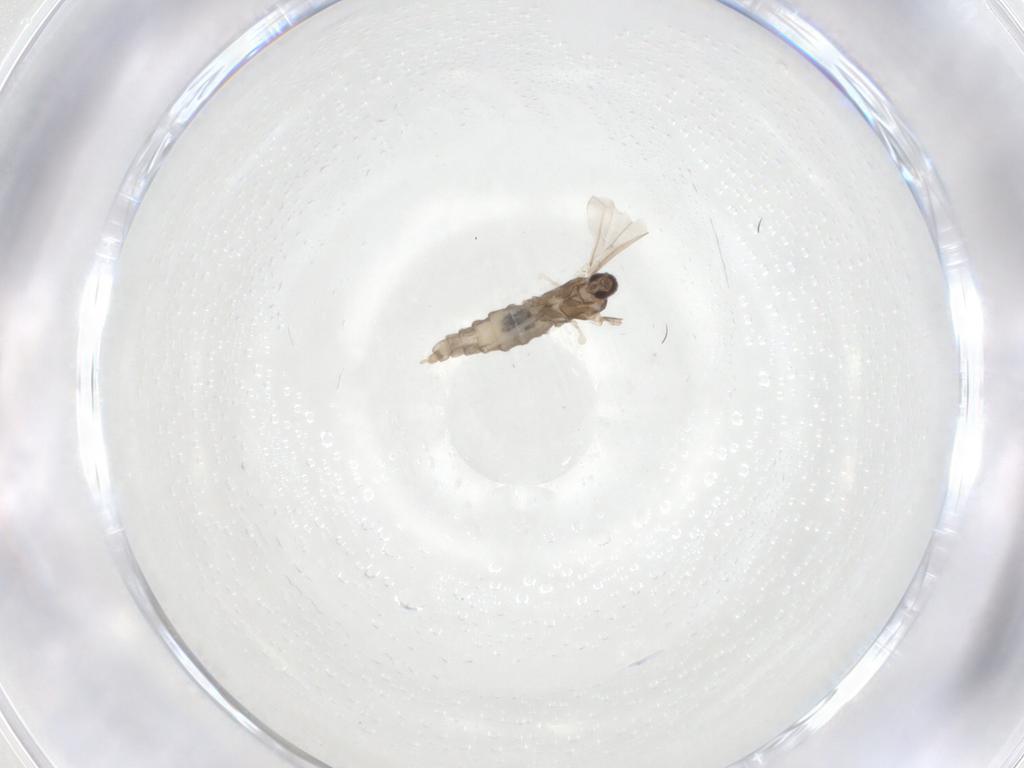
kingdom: Animalia
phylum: Arthropoda
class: Insecta
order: Diptera
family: Cecidomyiidae
